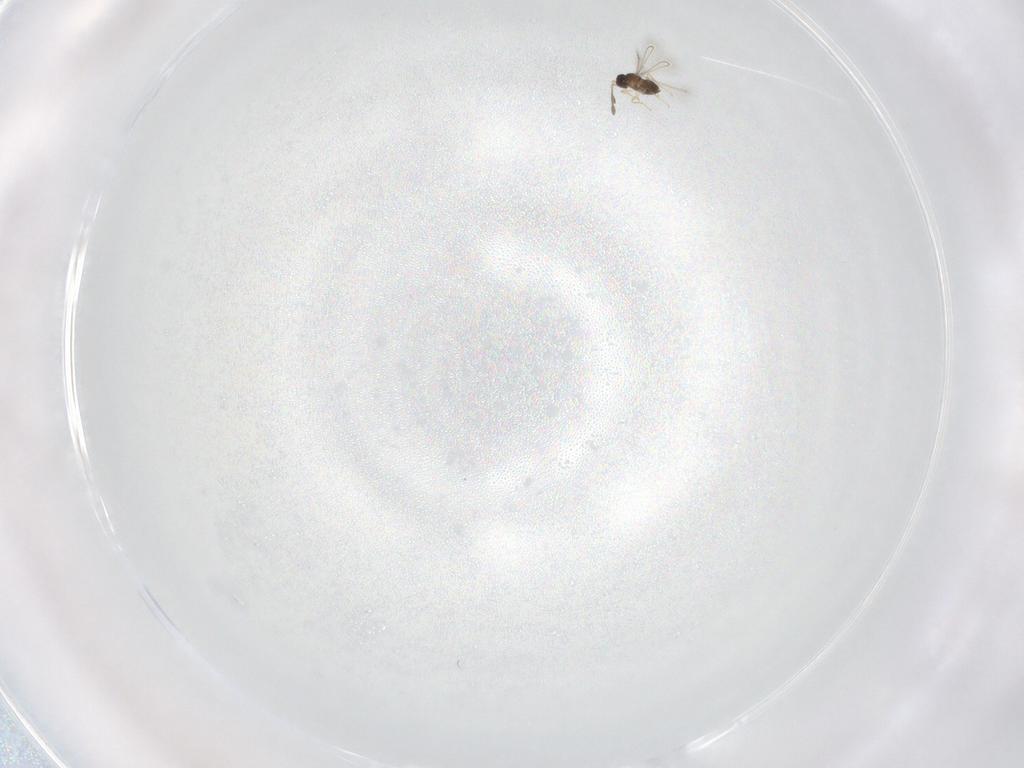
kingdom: Animalia
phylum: Arthropoda
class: Insecta
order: Hymenoptera
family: Diapriidae
